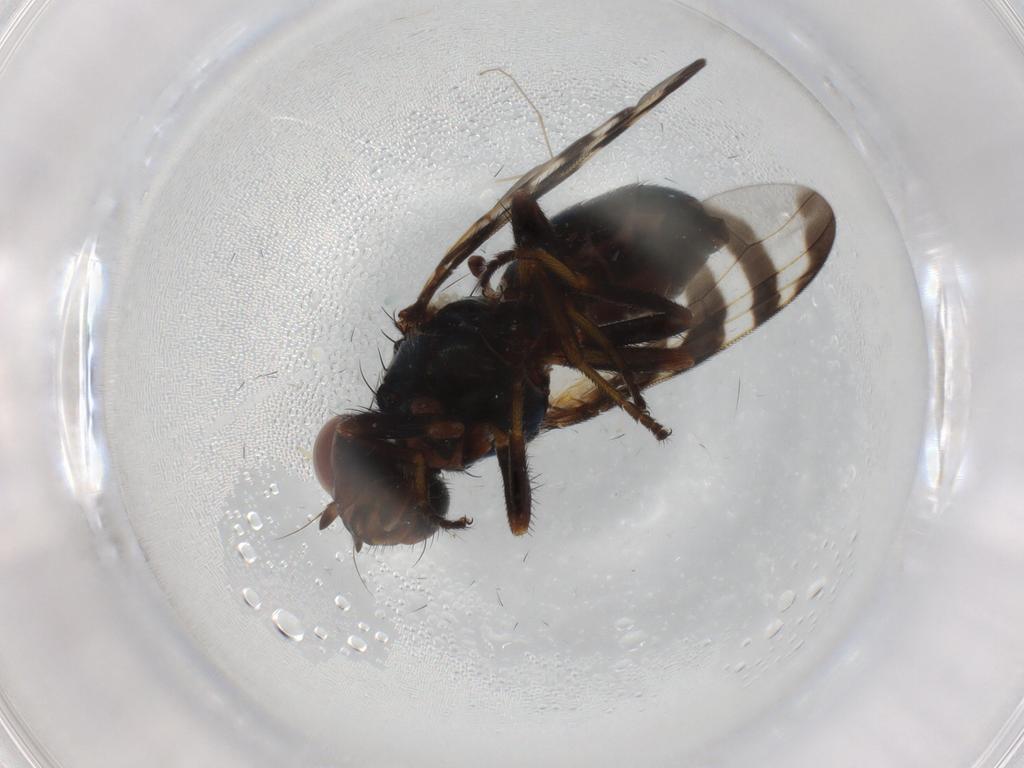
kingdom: Animalia
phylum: Arthropoda
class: Insecta
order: Diptera
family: Chironomidae
